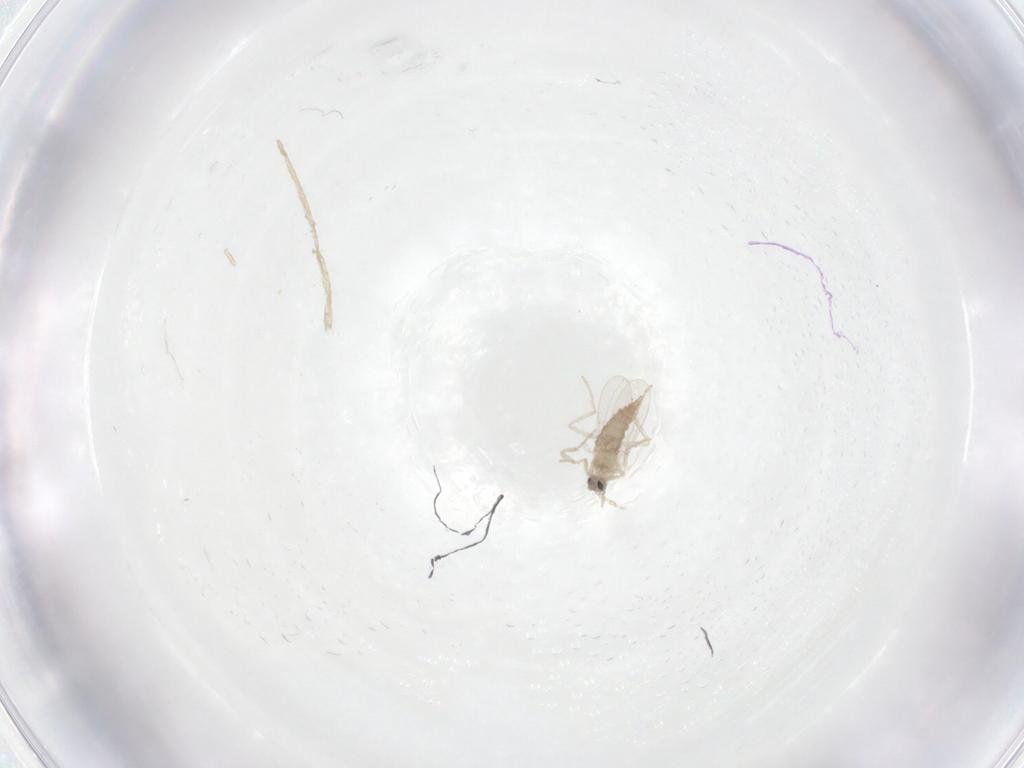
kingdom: Animalia
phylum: Arthropoda
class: Insecta
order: Diptera
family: Cecidomyiidae
